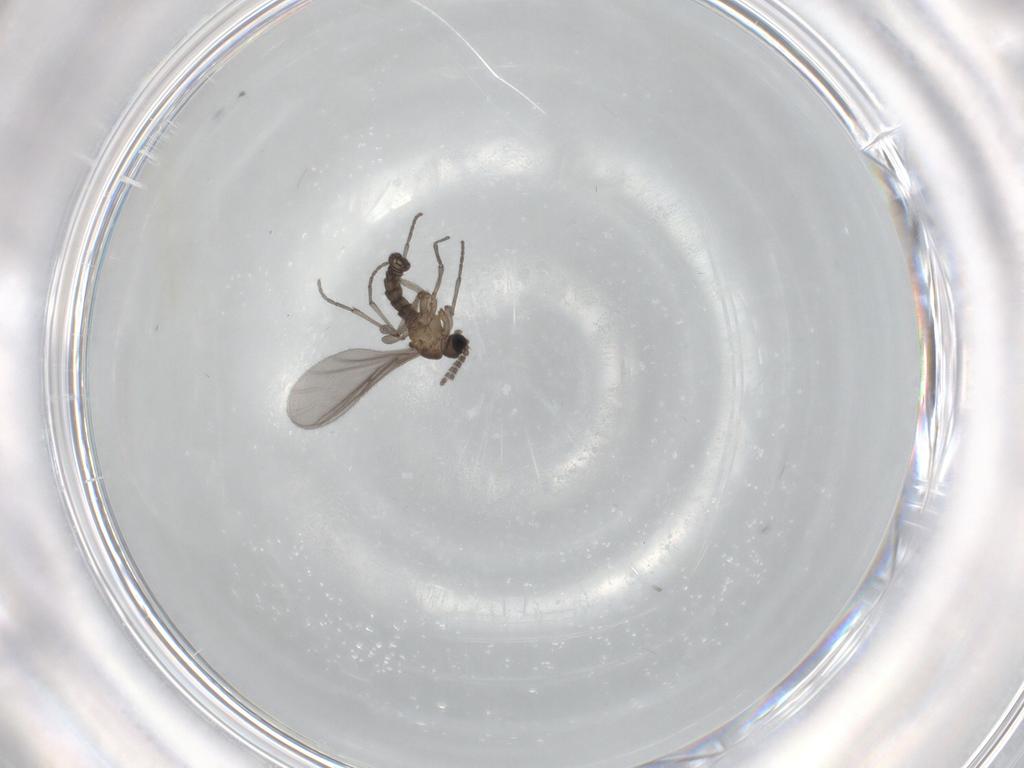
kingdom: Animalia
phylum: Arthropoda
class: Insecta
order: Diptera
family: Sciaridae
